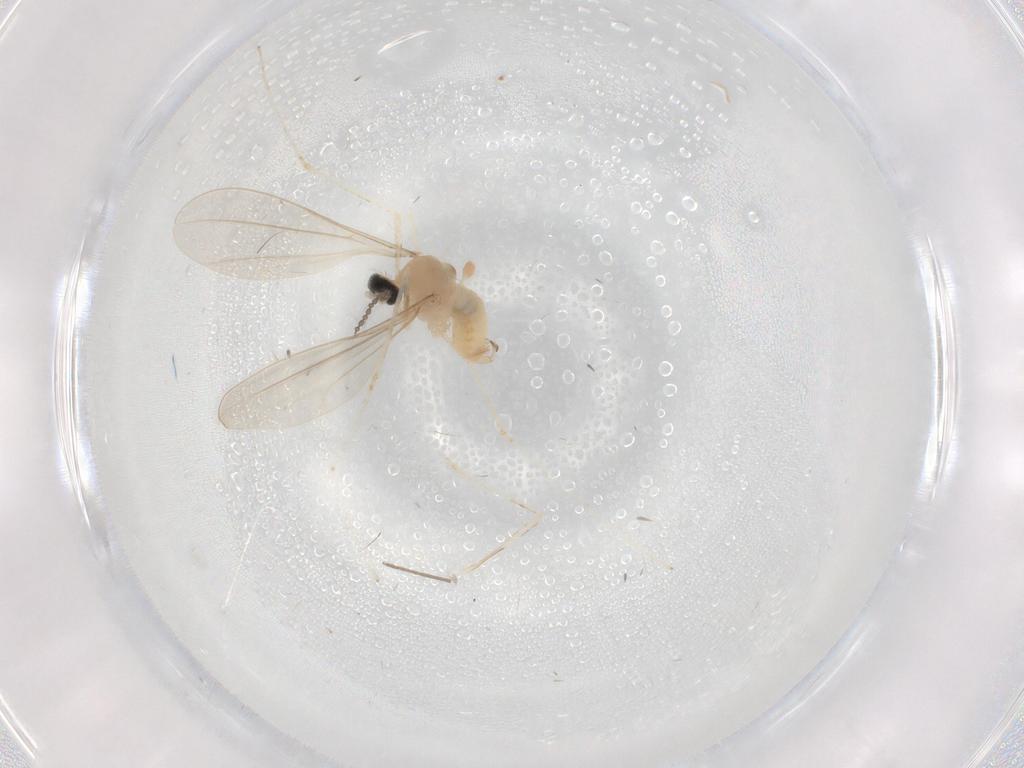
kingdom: Animalia
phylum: Arthropoda
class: Insecta
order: Diptera
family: Cecidomyiidae
